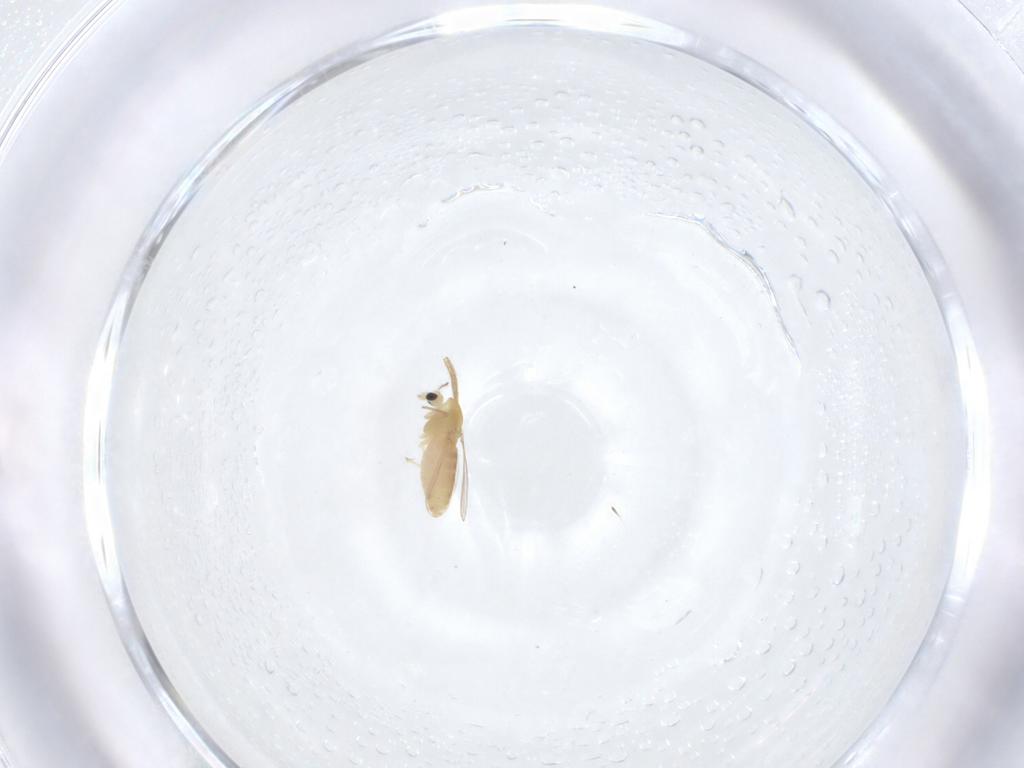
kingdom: Animalia
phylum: Arthropoda
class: Insecta
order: Diptera
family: Chironomidae
